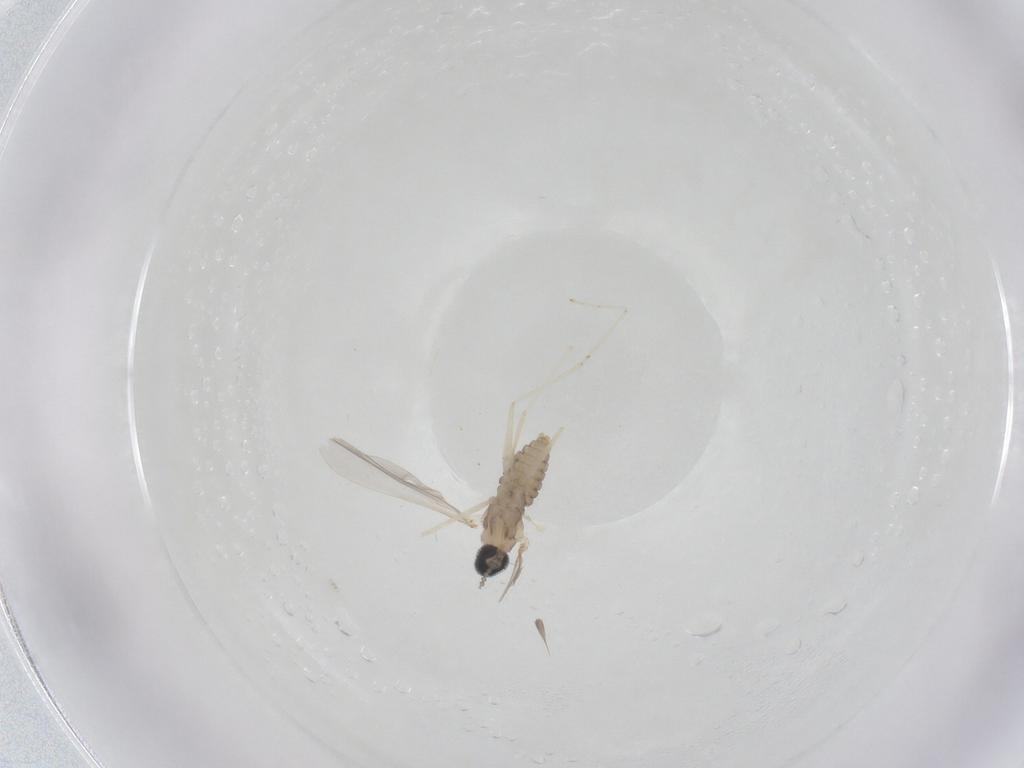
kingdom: Animalia
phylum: Arthropoda
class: Insecta
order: Diptera
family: Cecidomyiidae
